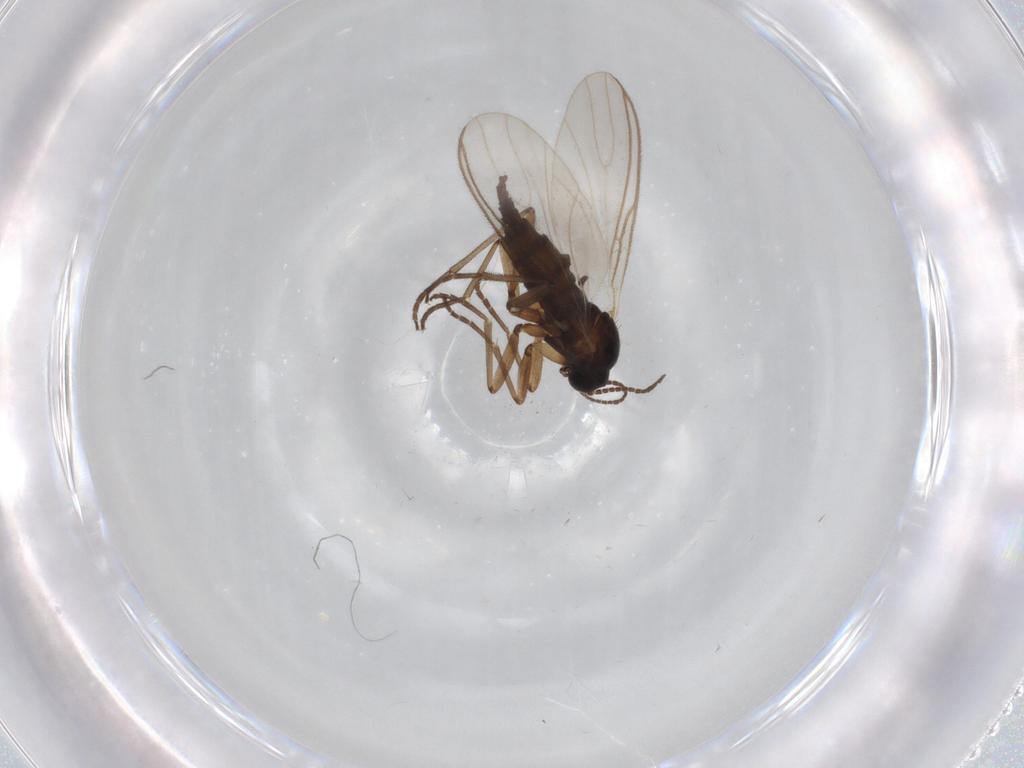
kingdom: Animalia
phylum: Arthropoda
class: Insecta
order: Diptera
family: Sciaridae
